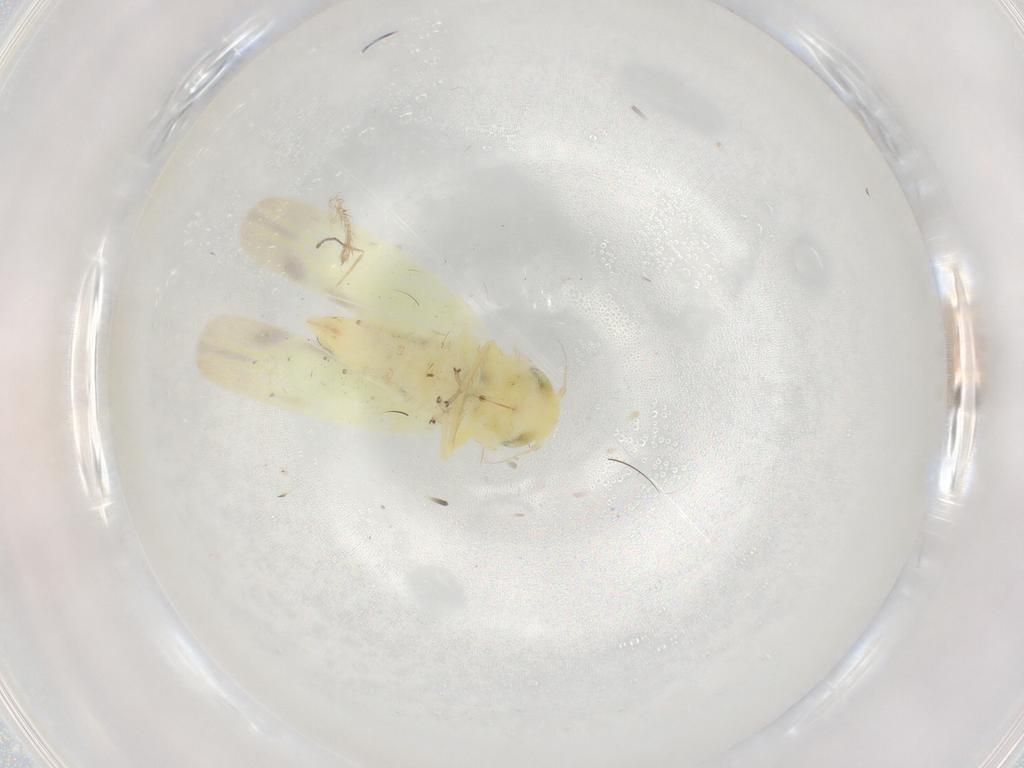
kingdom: Animalia
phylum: Arthropoda
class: Insecta
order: Hemiptera
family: Cicadellidae
